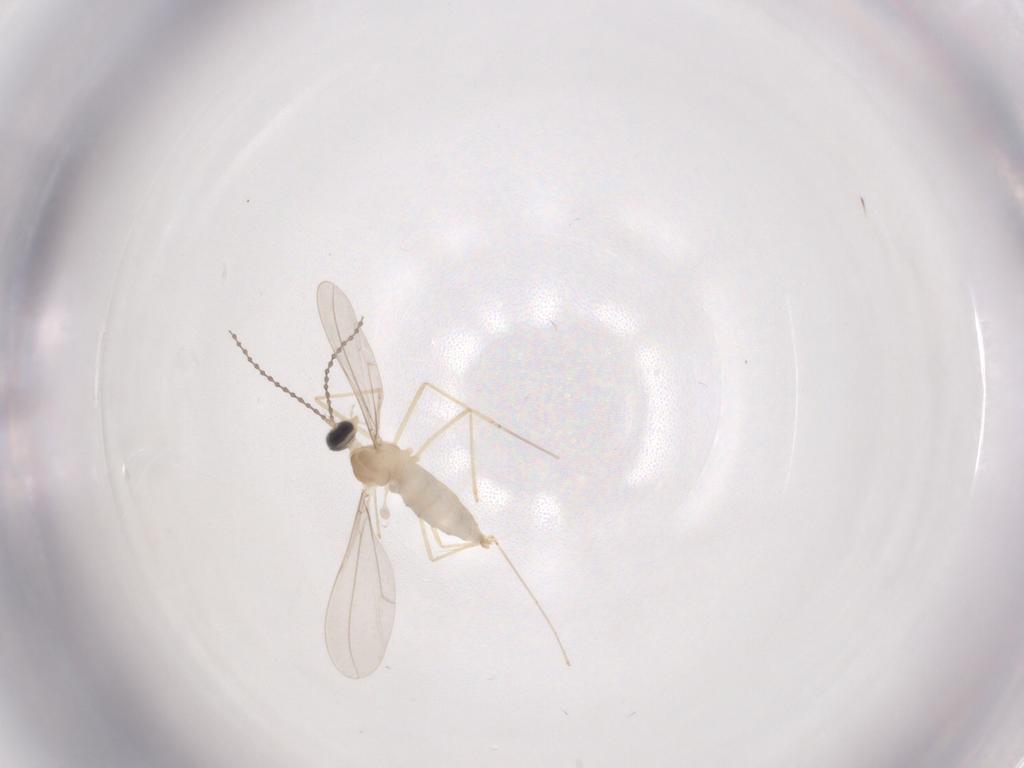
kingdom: Animalia
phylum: Arthropoda
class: Insecta
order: Diptera
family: Cecidomyiidae
